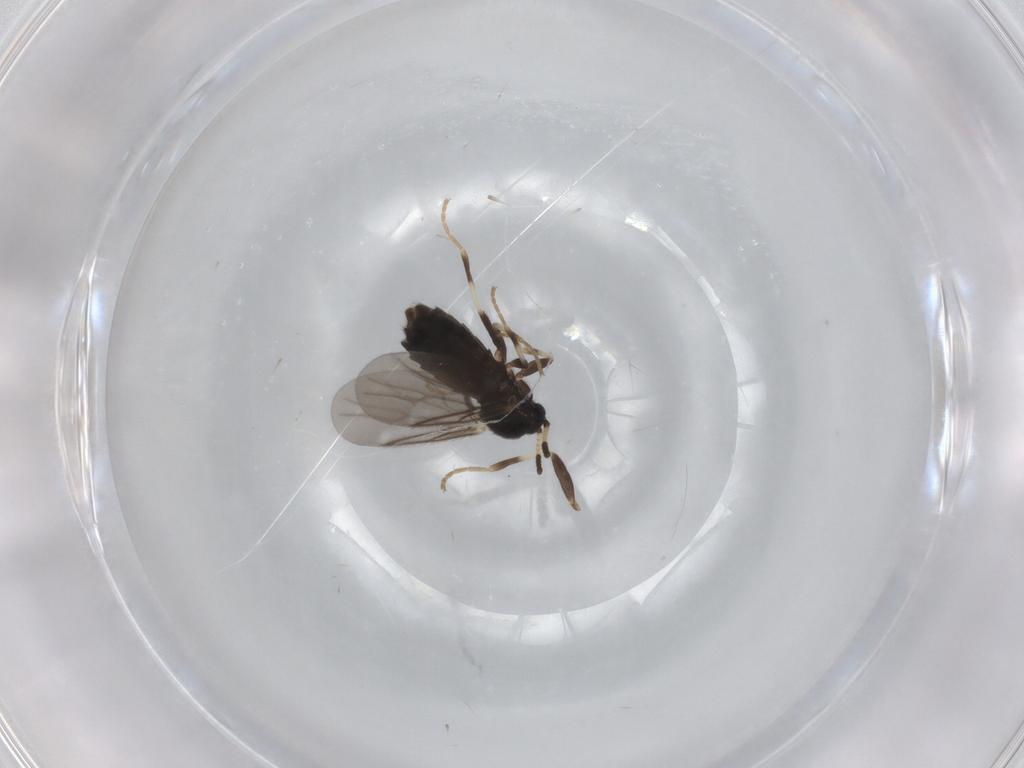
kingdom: Animalia
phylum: Arthropoda
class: Insecta
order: Diptera
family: Scatopsidae
